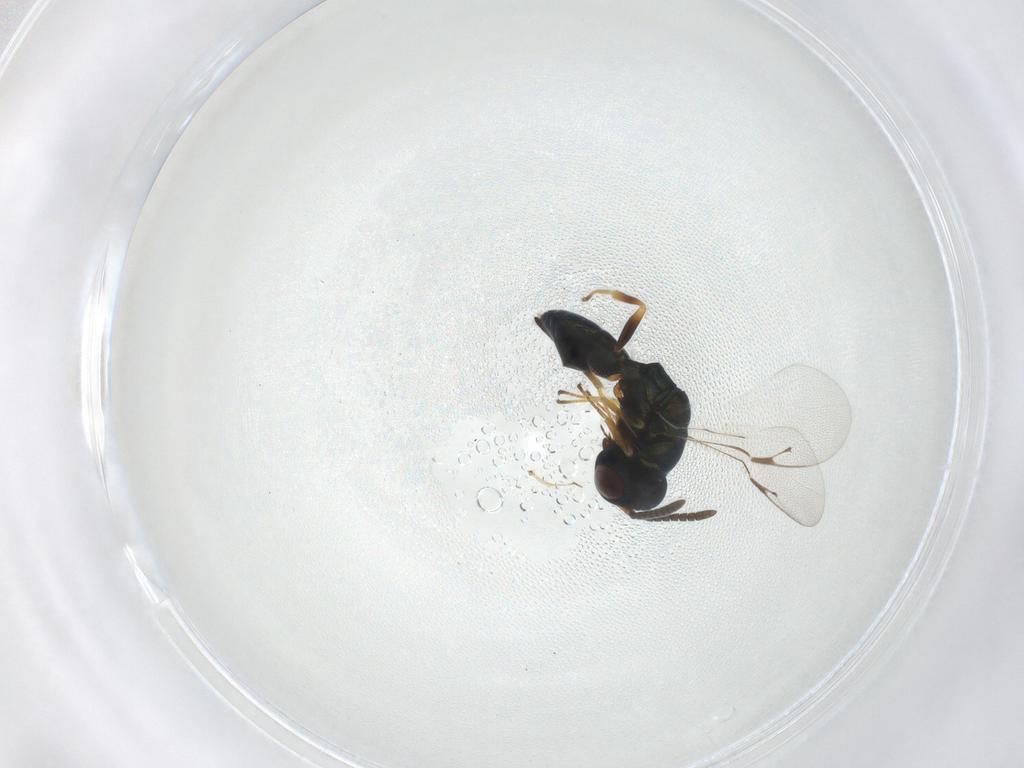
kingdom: Animalia
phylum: Arthropoda
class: Insecta
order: Hymenoptera
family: Pteromalidae
